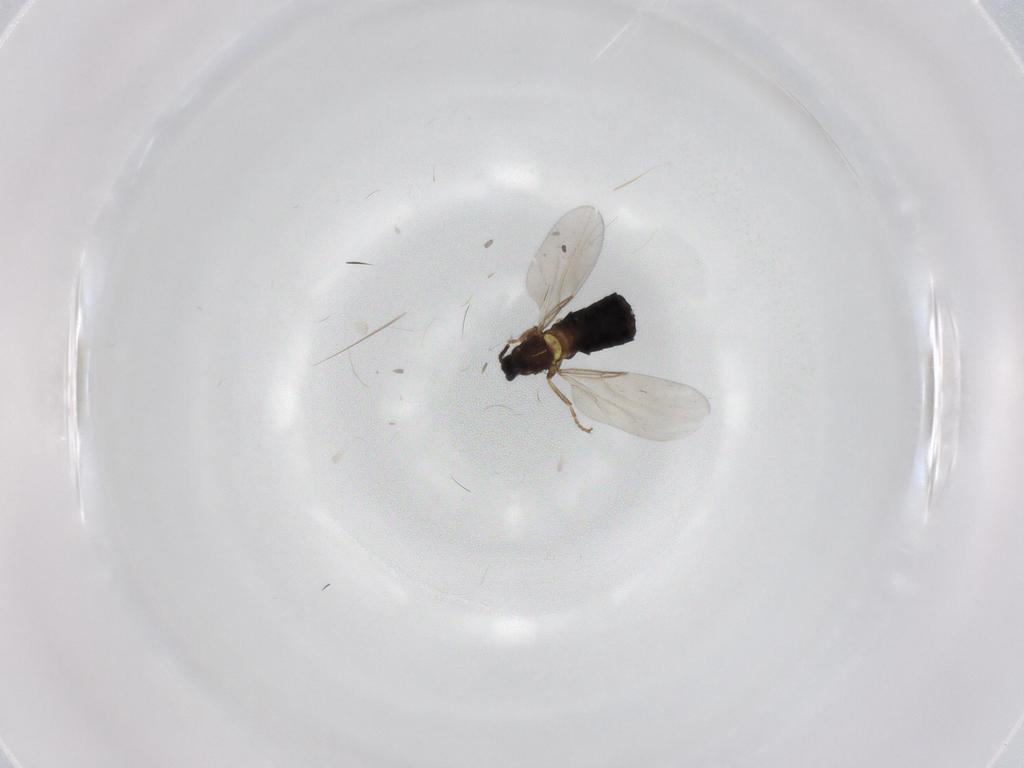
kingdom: Animalia
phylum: Arthropoda
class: Insecta
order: Diptera
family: Scatopsidae
